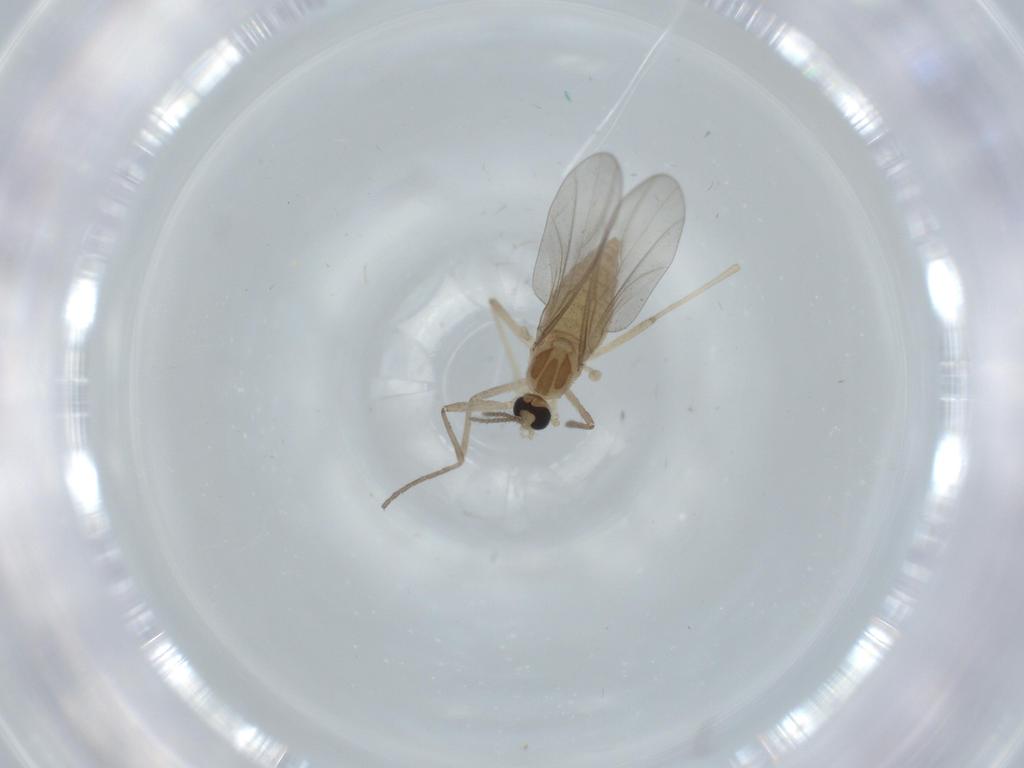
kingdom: Animalia
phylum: Arthropoda
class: Insecta
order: Diptera
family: Cecidomyiidae
